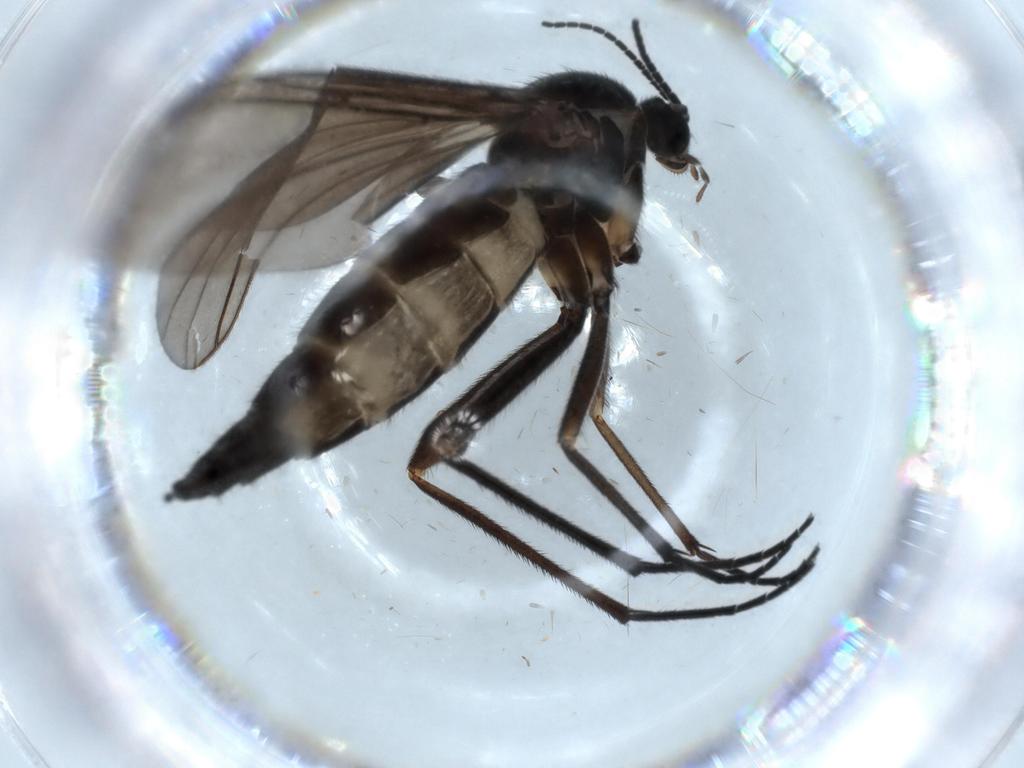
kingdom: Animalia
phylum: Arthropoda
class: Insecta
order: Diptera
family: Sciaridae
